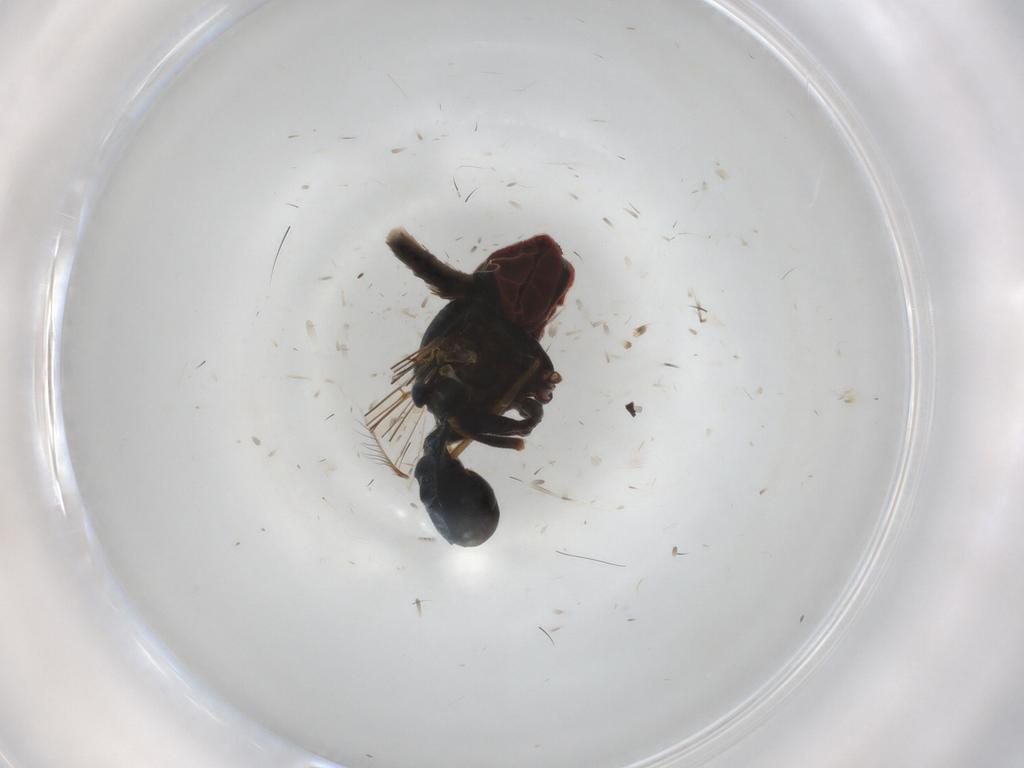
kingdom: Animalia
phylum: Arthropoda
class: Insecta
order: Diptera
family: Pipunculidae
